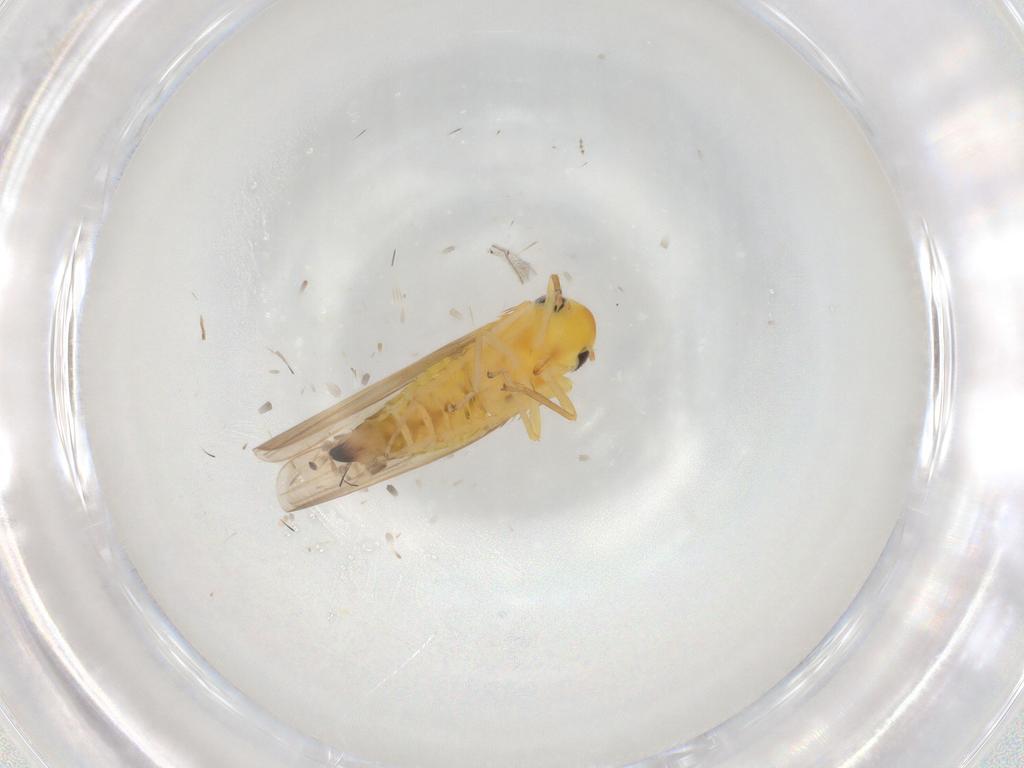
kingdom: Animalia
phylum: Arthropoda
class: Insecta
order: Hemiptera
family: Cicadellidae
